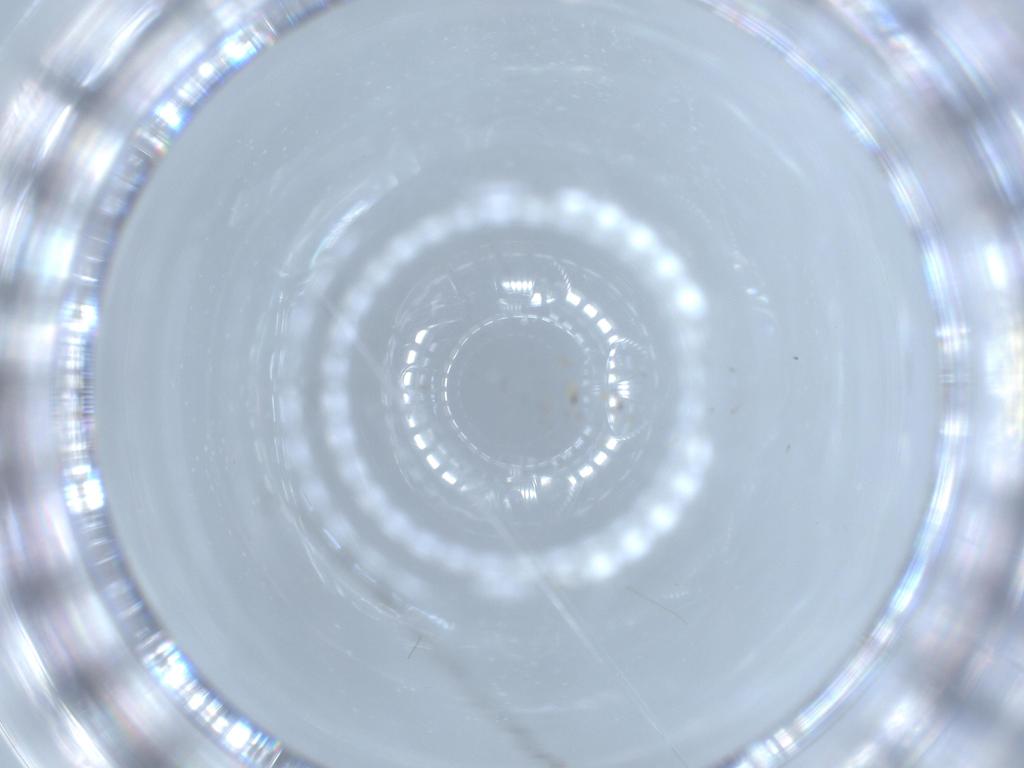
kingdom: Animalia
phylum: Arthropoda
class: Insecta
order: Blattodea
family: Ectobiidae
